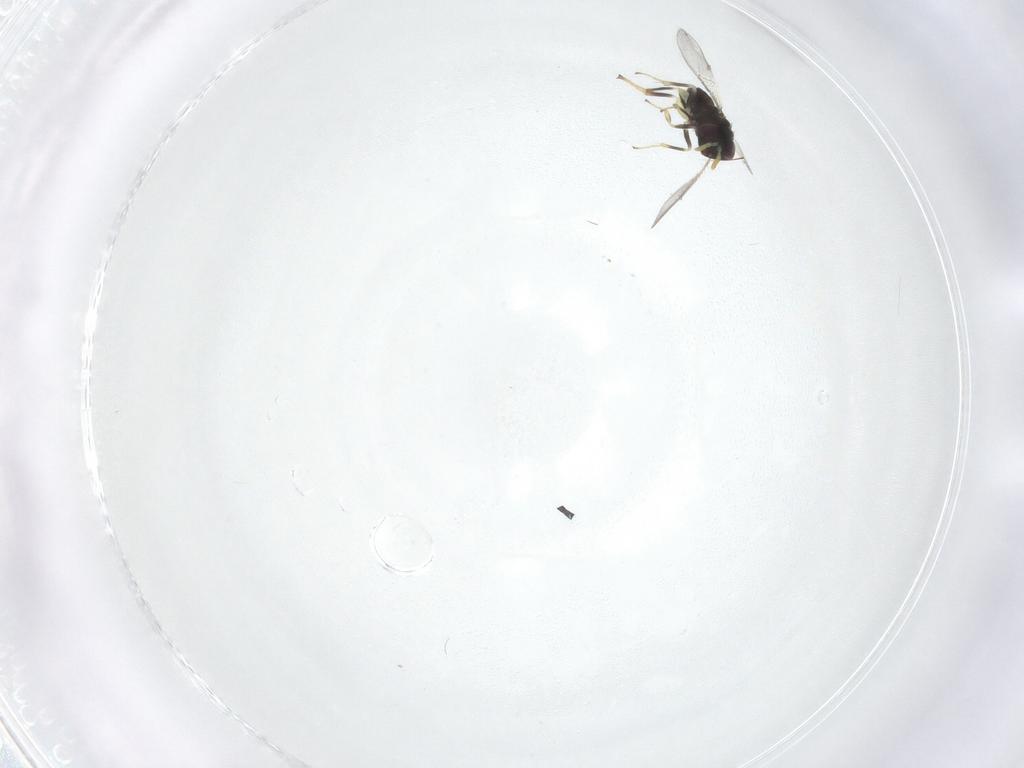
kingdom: Animalia
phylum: Arthropoda
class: Insecta
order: Hymenoptera
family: Aphelinidae
